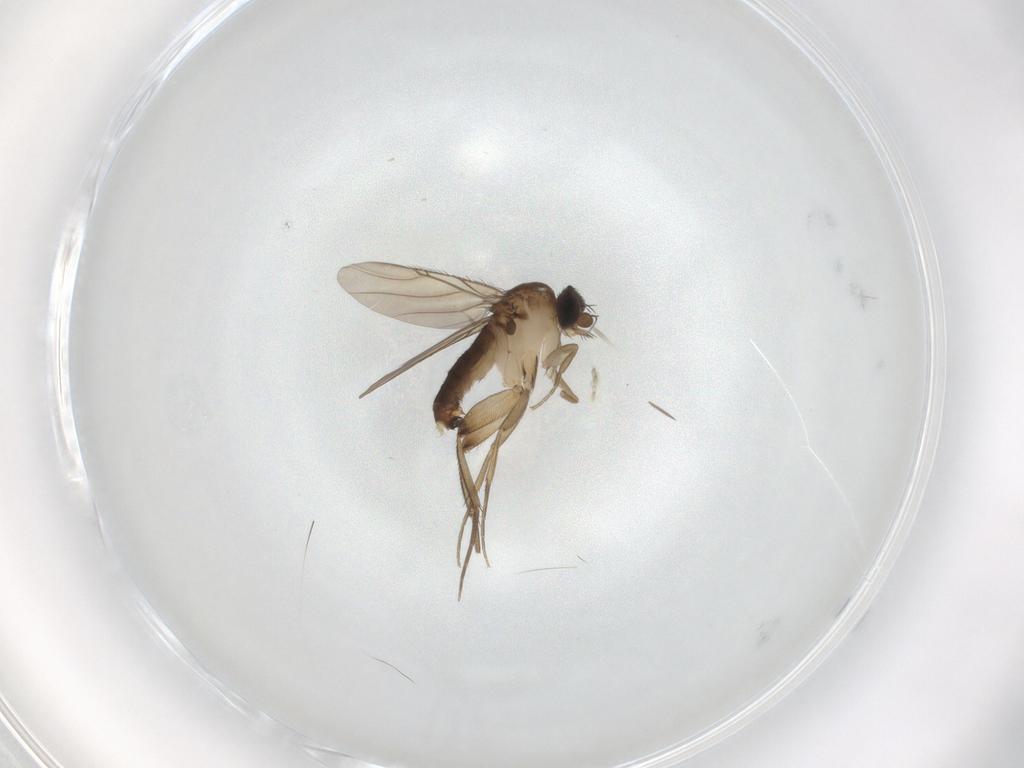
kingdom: Animalia
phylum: Arthropoda
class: Insecta
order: Diptera
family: Phoridae
